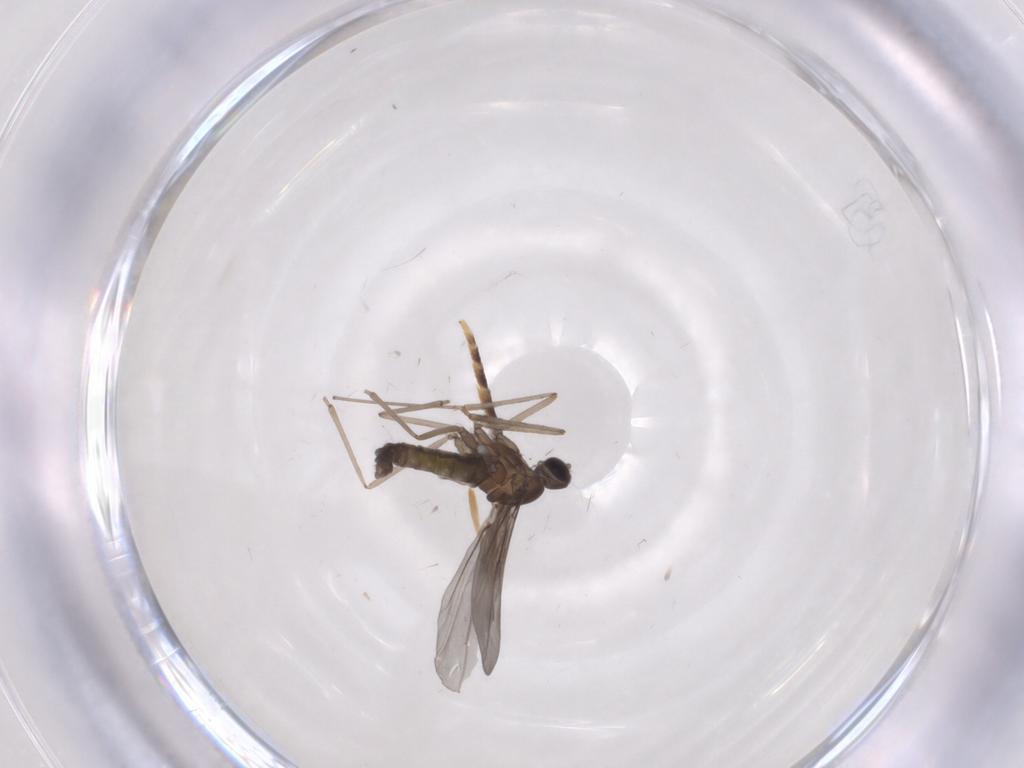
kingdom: Animalia
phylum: Arthropoda
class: Insecta
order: Diptera
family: Cecidomyiidae
